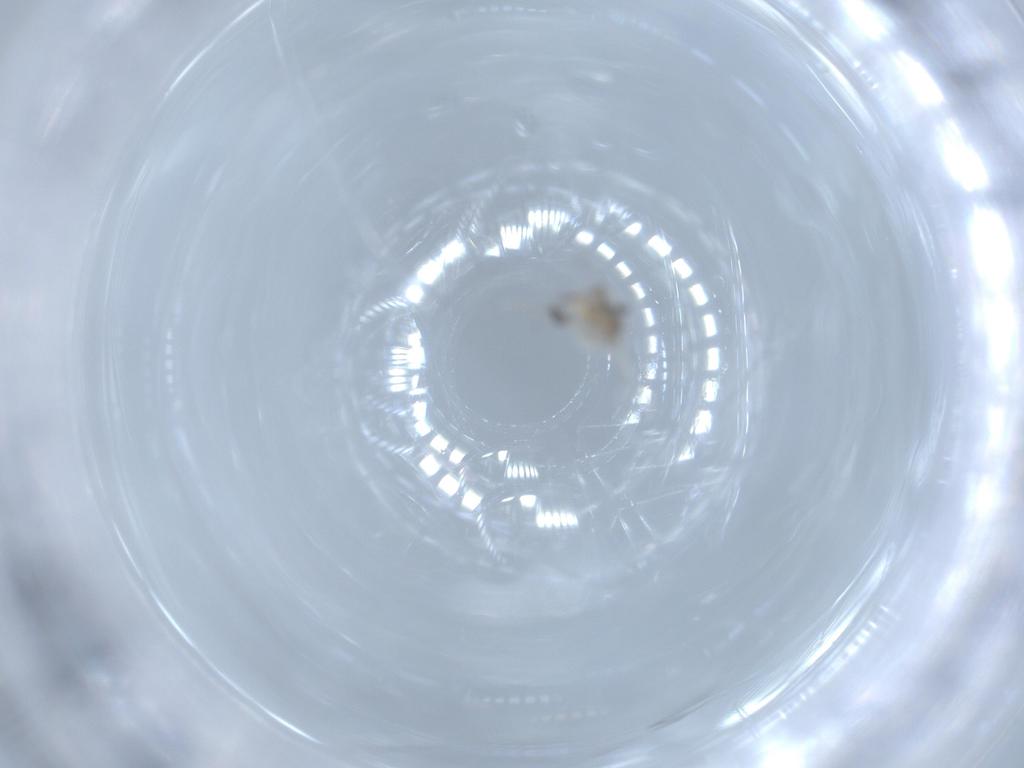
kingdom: Animalia
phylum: Arthropoda
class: Insecta
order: Diptera
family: Cecidomyiidae
